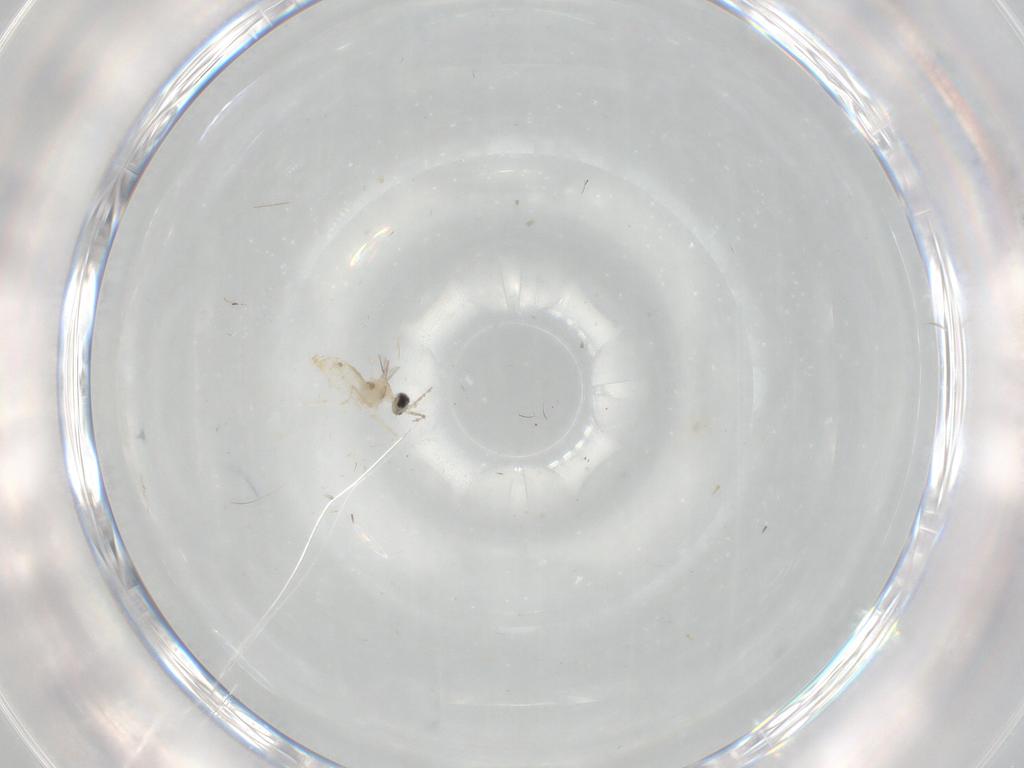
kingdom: Animalia
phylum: Arthropoda
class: Insecta
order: Diptera
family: Cecidomyiidae
